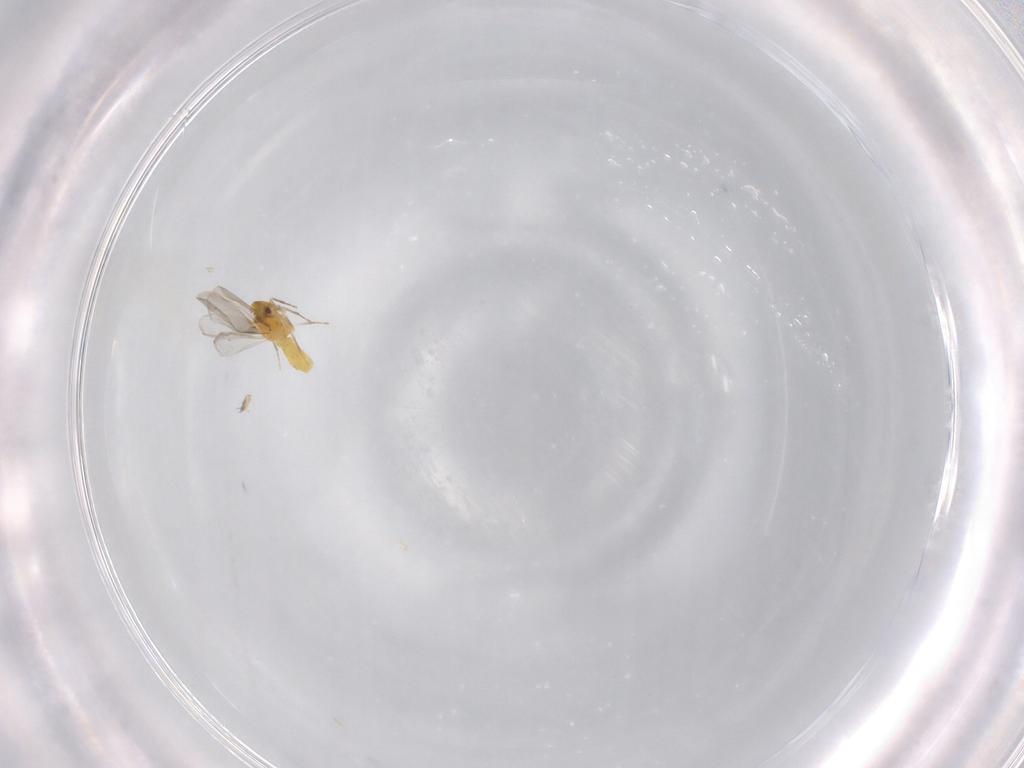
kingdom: Animalia
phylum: Arthropoda
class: Insecta
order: Hemiptera
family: Aleyrodidae
